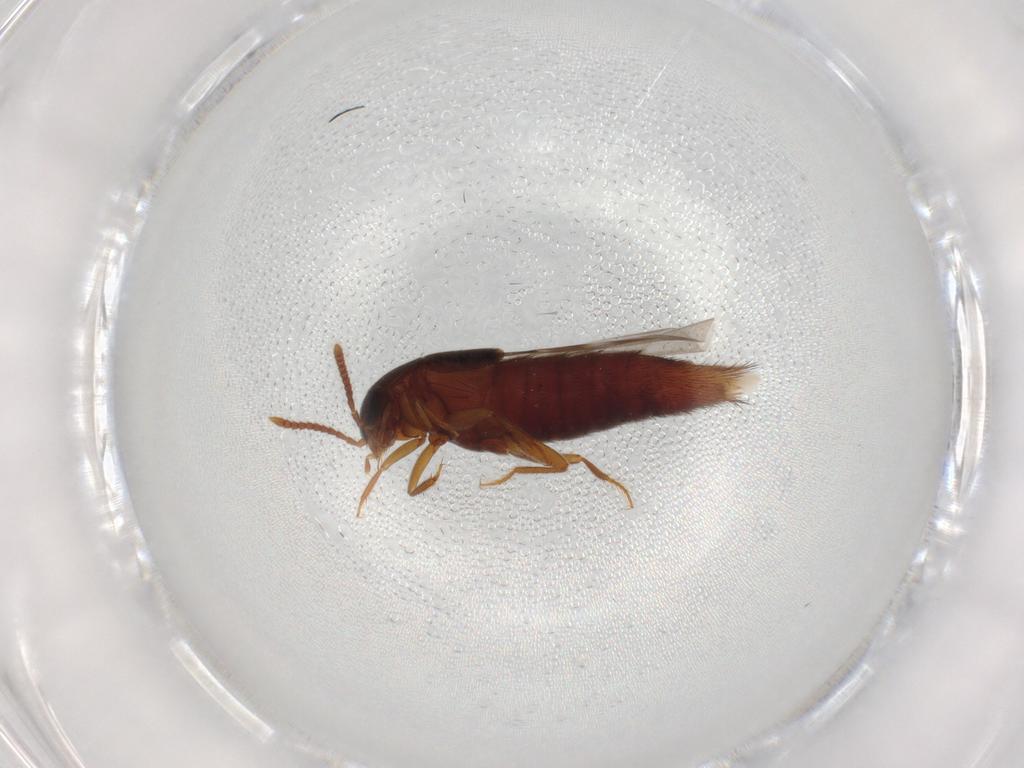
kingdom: Animalia
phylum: Arthropoda
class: Insecta
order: Coleoptera
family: Staphylinidae
